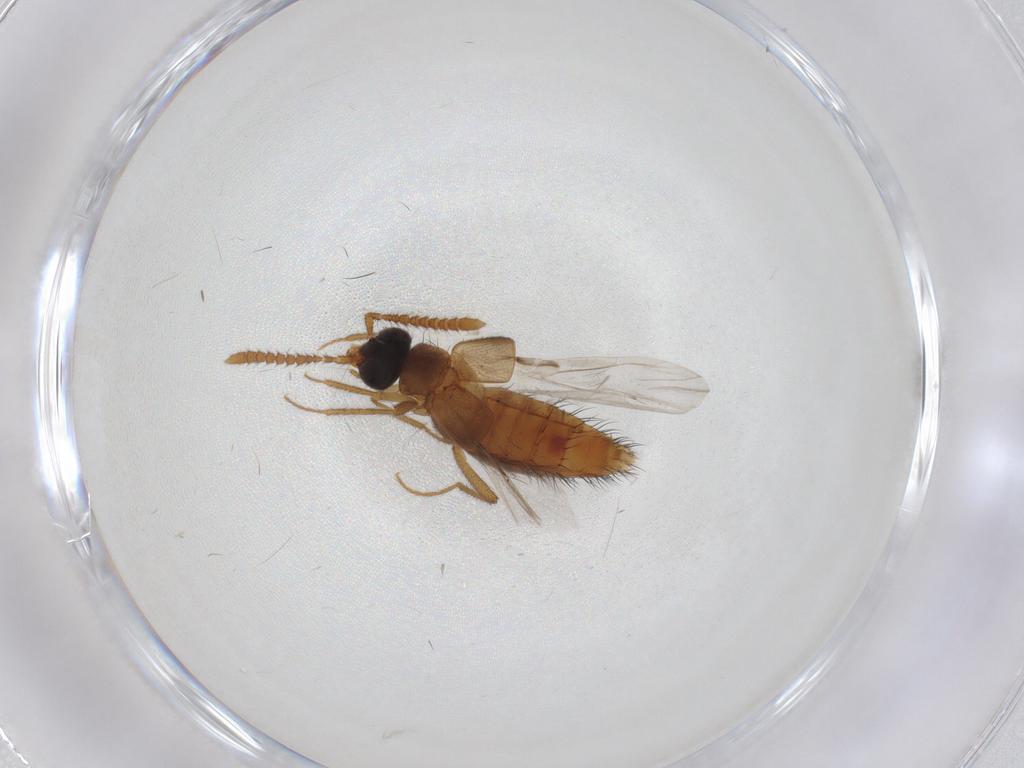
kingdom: Animalia
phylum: Arthropoda
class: Insecta
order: Coleoptera
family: Staphylinidae
